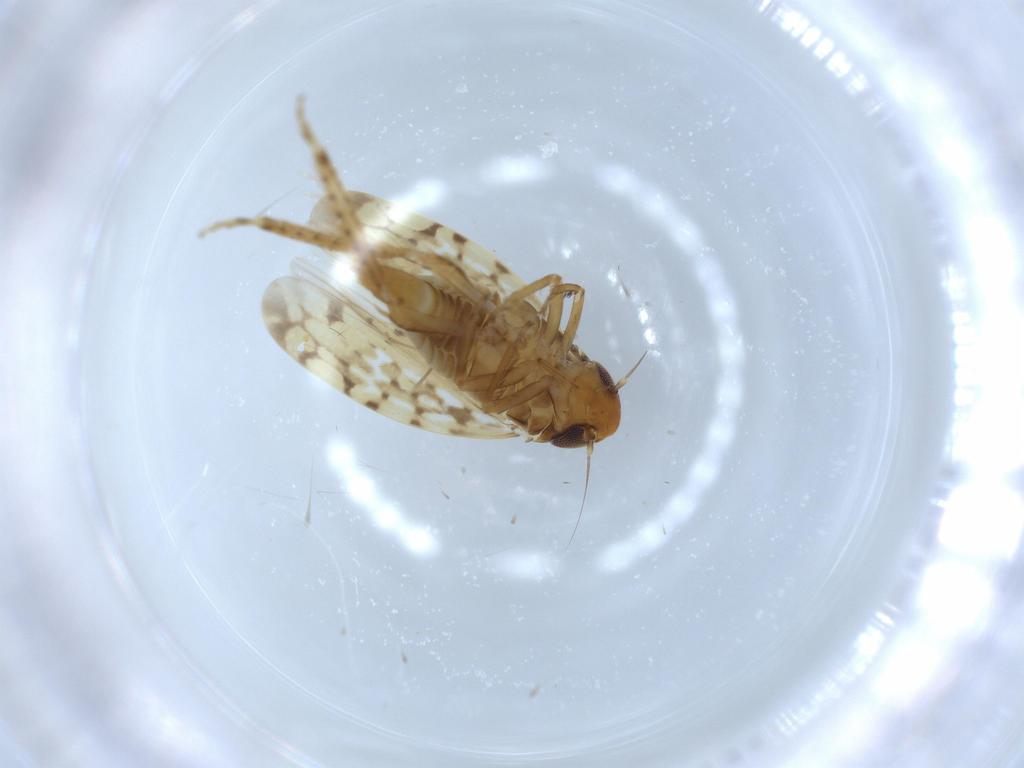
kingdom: Animalia
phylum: Arthropoda
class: Insecta
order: Hemiptera
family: Cicadellidae
